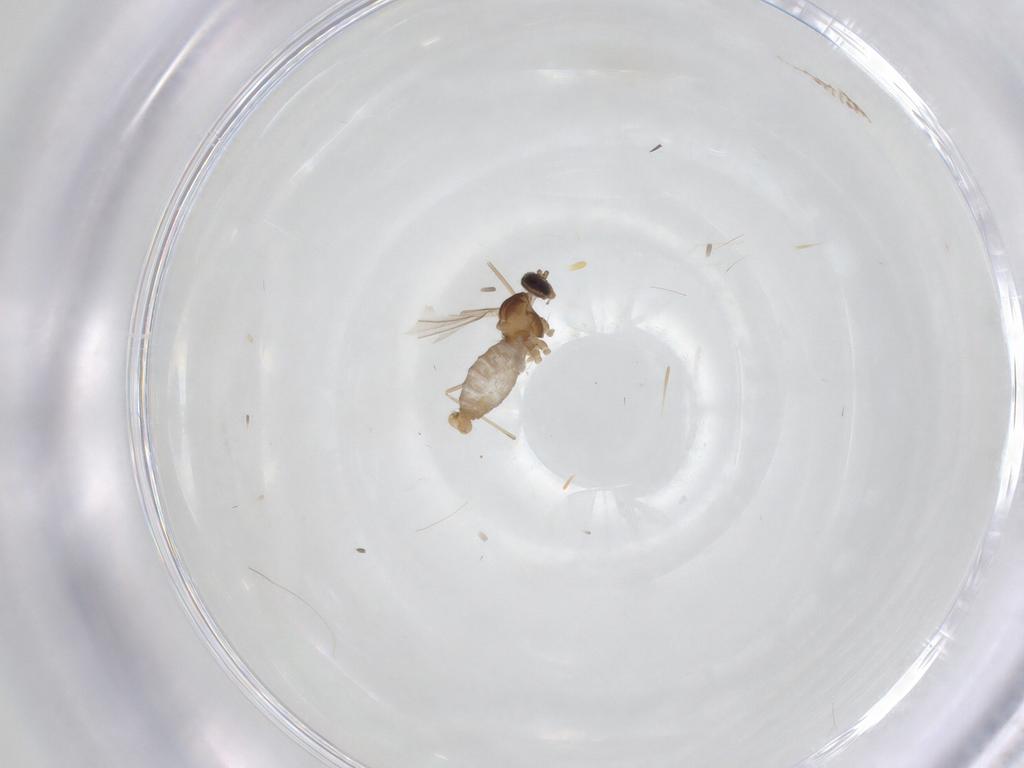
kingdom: Animalia
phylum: Arthropoda
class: Insecta
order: Diptera
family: Cecidomyiidae
